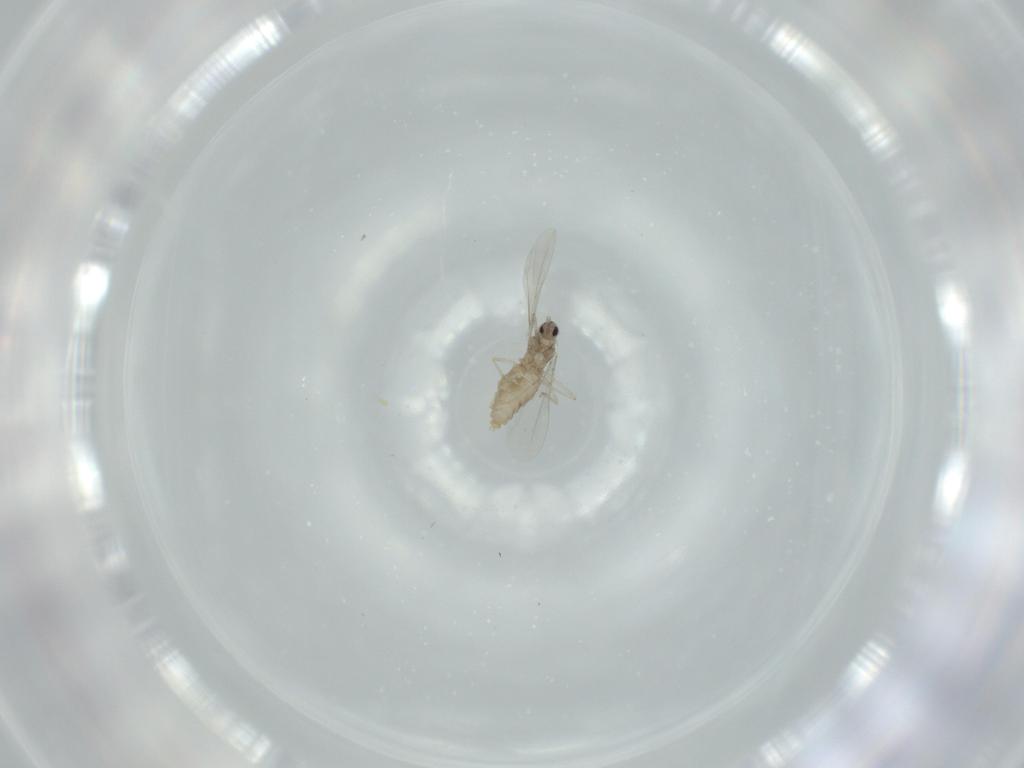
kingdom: Animalia
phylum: Arthropoda
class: Insecta
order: Diptera
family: Cecidomyiidae
